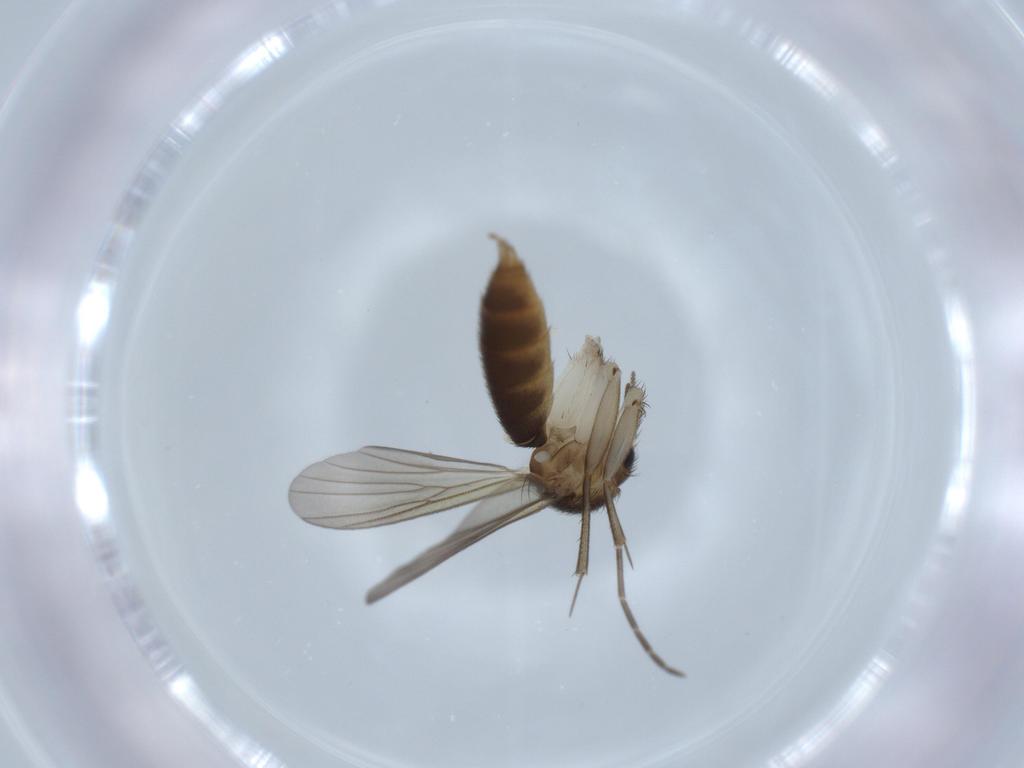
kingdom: Animalia
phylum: Arthropoda
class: Insecta
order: Diptera
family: Mycetophilidae
